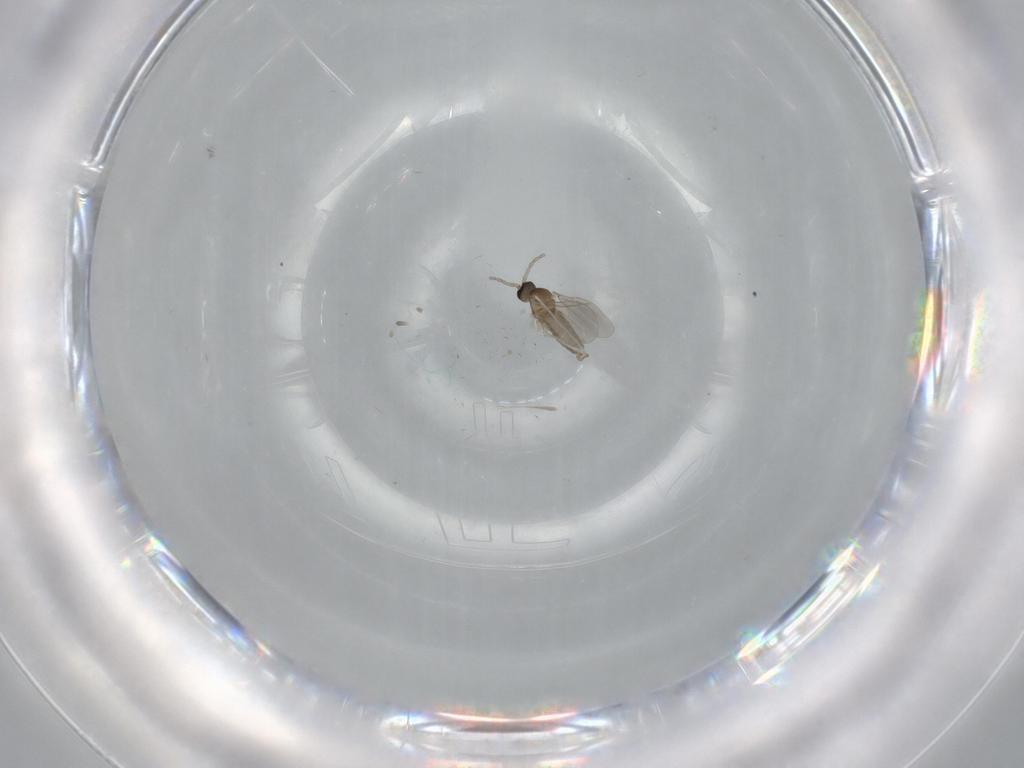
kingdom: Animalia
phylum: Arthropoda
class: Insecta
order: Diptera
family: Cecidomyiidae
